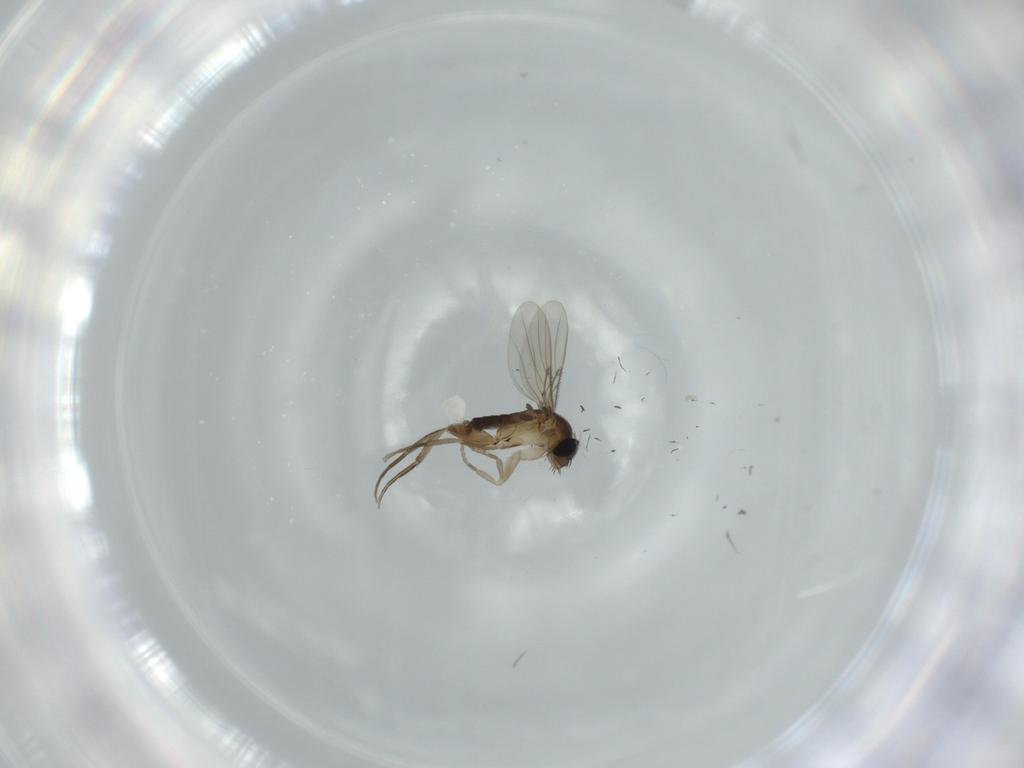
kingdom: Animalia
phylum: Arthropoda
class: Insecta
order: Diptera
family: Phoridae
